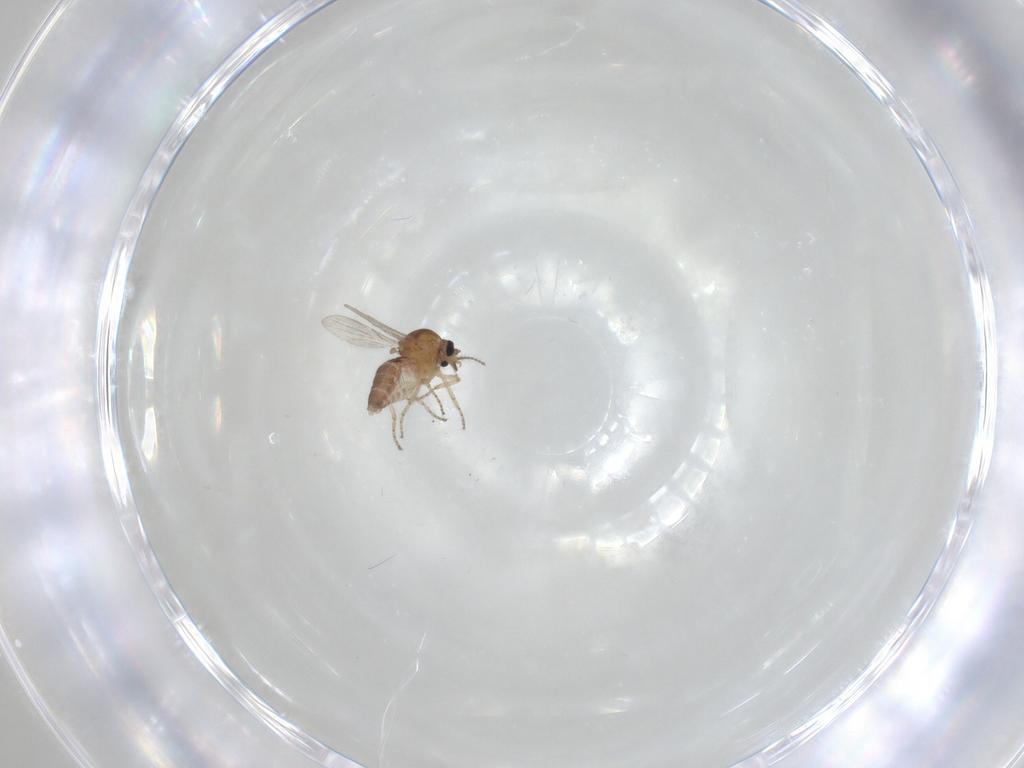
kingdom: Animalia
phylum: Arthropoda
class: Insecta
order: Diptera
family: Cecidomyiidae
